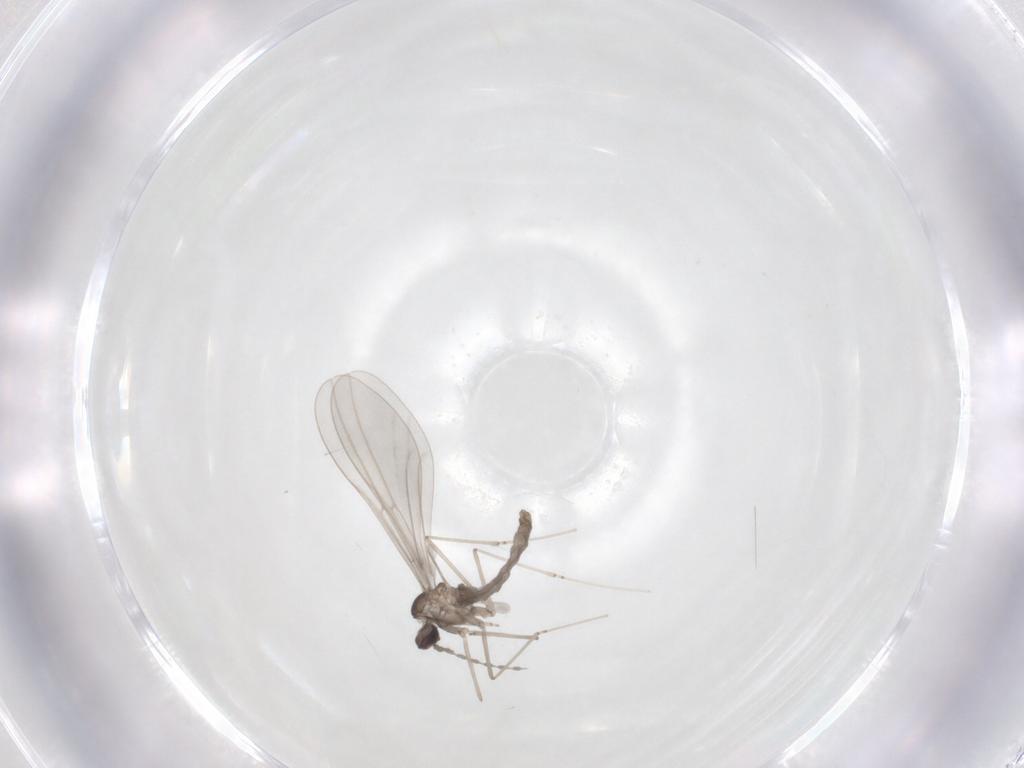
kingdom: Animalia
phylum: Arthropoda
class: Insecta
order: Diptera
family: Cecidomyiidae
